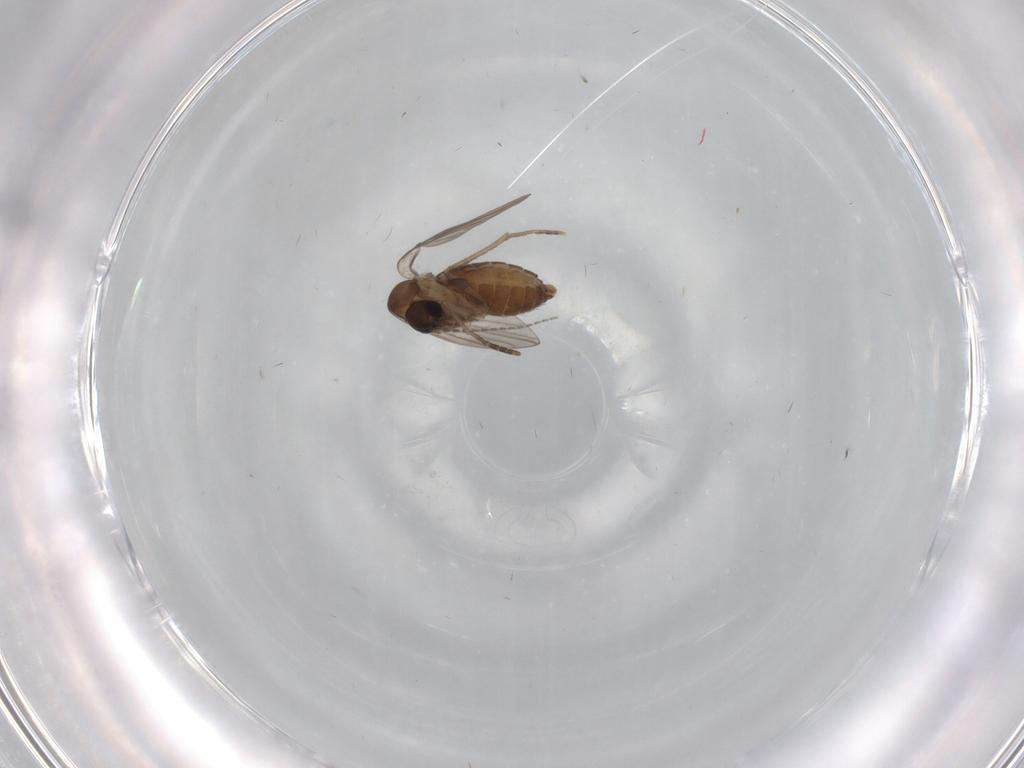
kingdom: Animalia
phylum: Arthropoda
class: Insecta
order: Diptera
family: Cecidomyiidae
